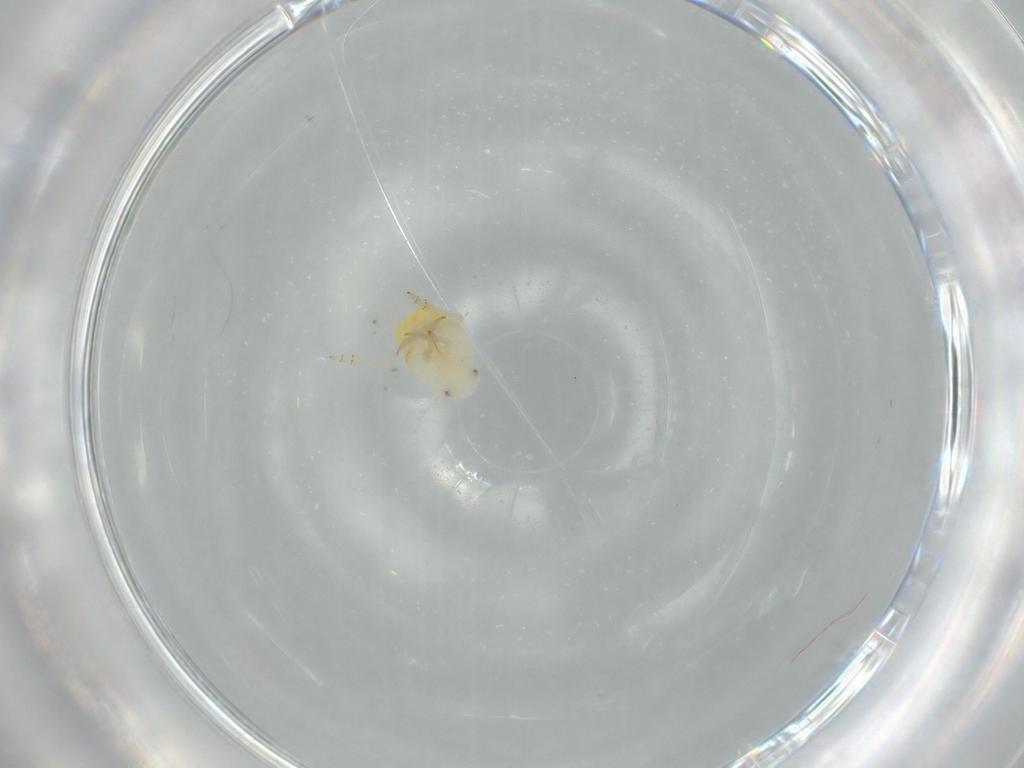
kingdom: Animalia
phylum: Arthropoda
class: Insecta
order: Hemiptera
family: Flatidae
